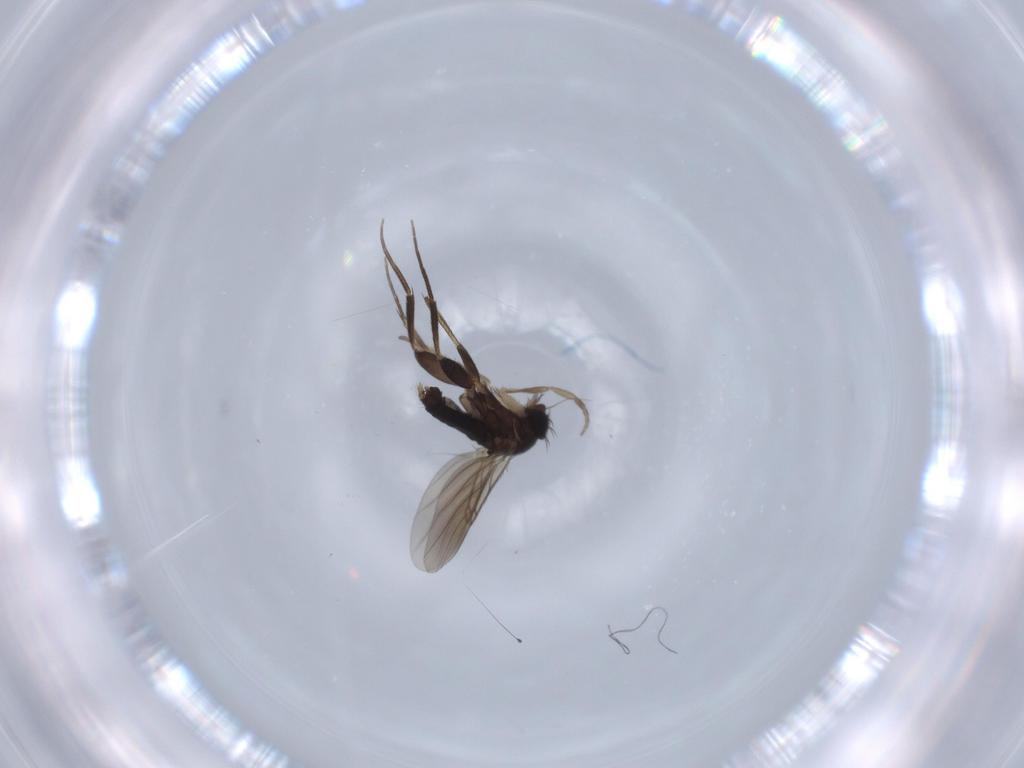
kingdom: Animalia
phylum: Arthropoda
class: Insecta
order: Diptera
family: Phoridae
